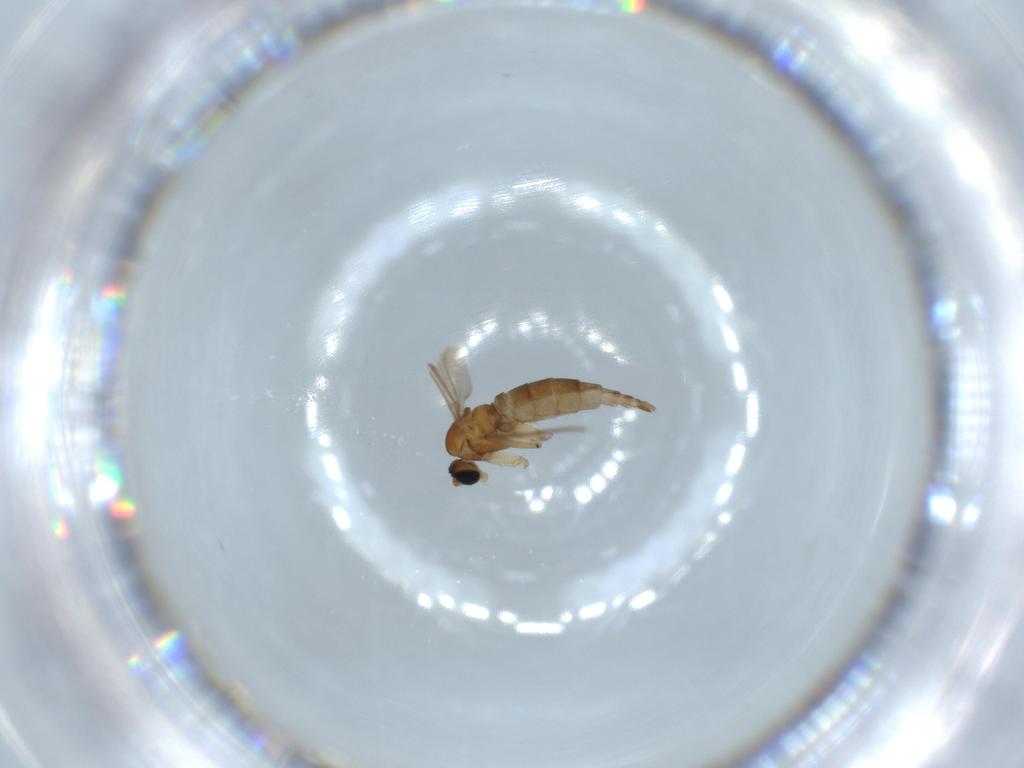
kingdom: Animalia
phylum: Arthropoda
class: Insecta
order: Diptera
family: Sciaridae
